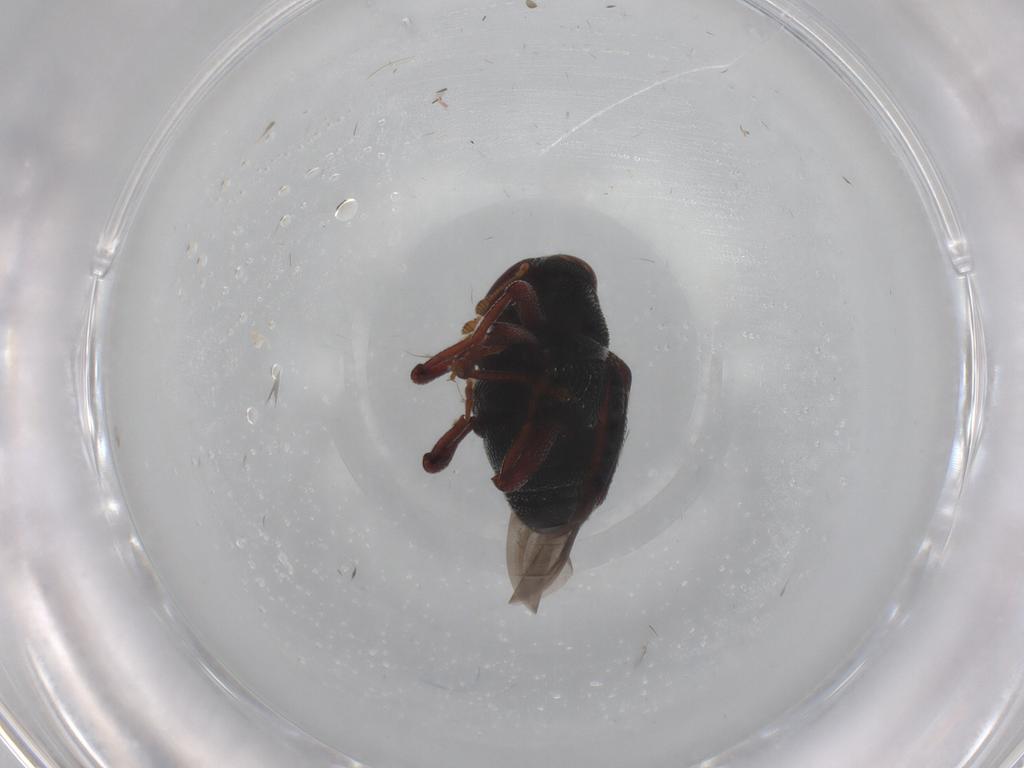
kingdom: Animalia
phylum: Arthropoda
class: Insecta
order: Coleoptera
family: Curculionidae
